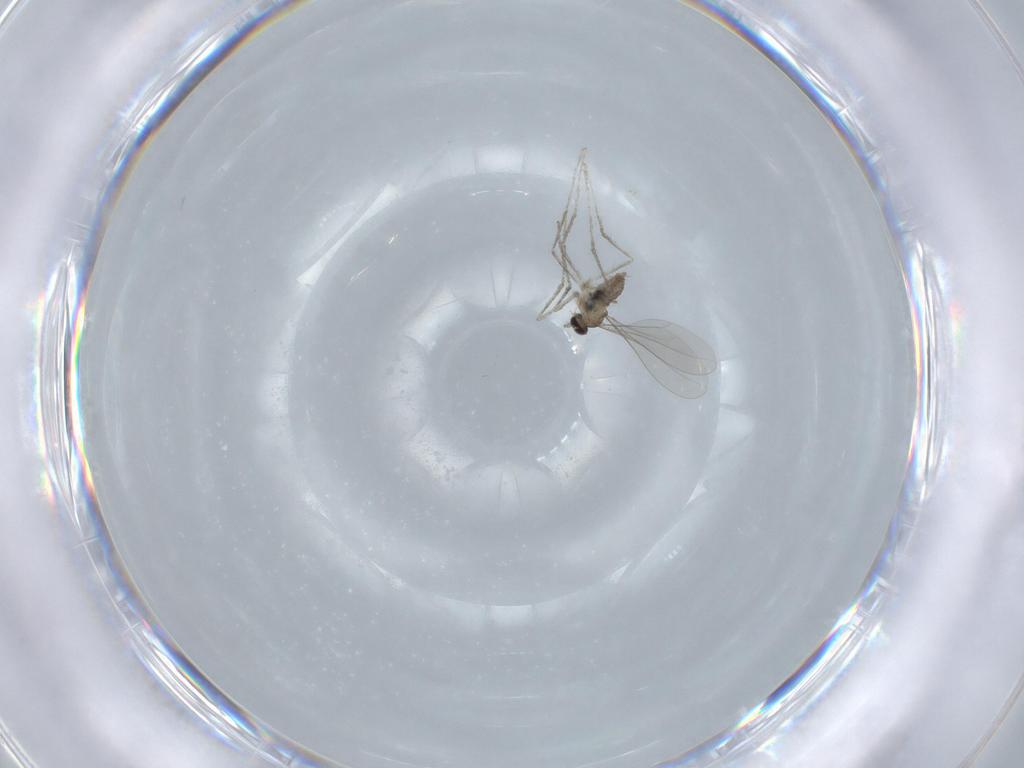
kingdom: Animalia
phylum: Arthropoda
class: Insecta
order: Diptera
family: Cecidomyiidae
